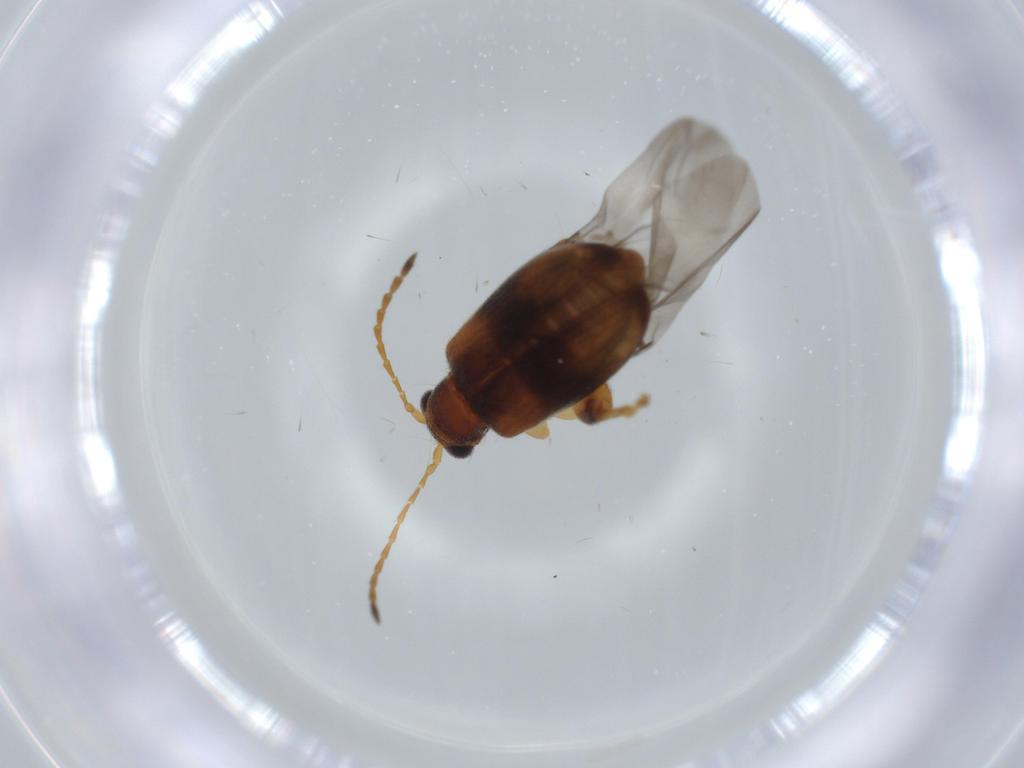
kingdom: Animalia
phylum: Arthropoda
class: Insecta
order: Coleoptera
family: Chrysomelidae
